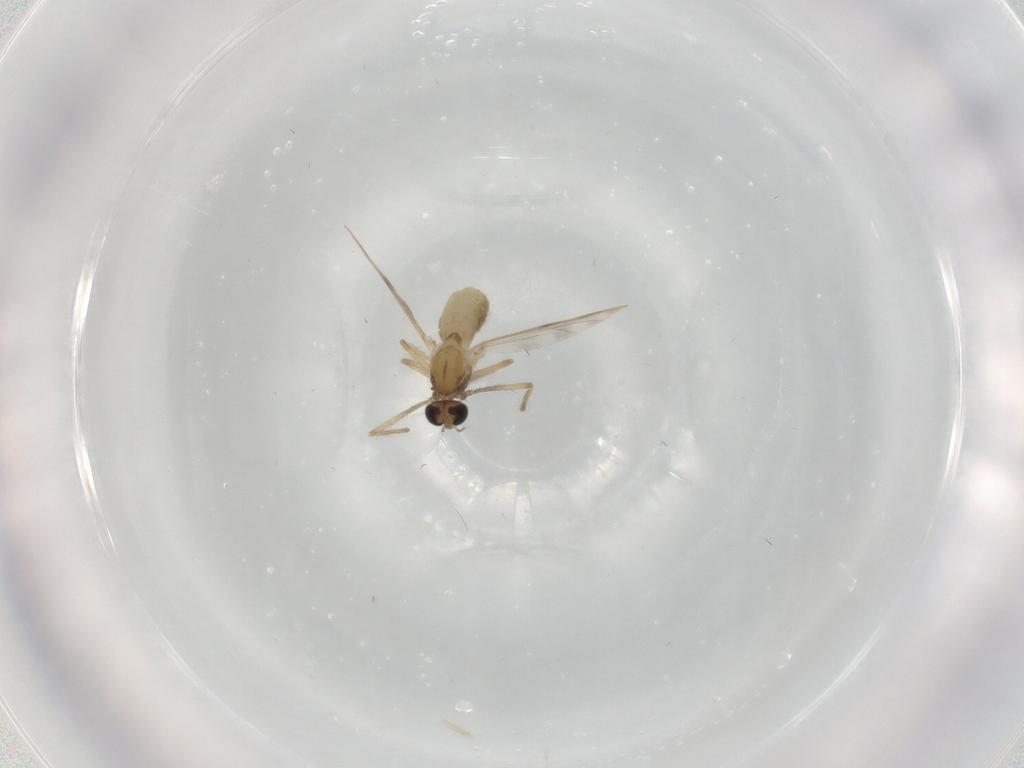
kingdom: Animalia
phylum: Arthropoda
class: Insecta
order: Diptera
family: Chironomidae
